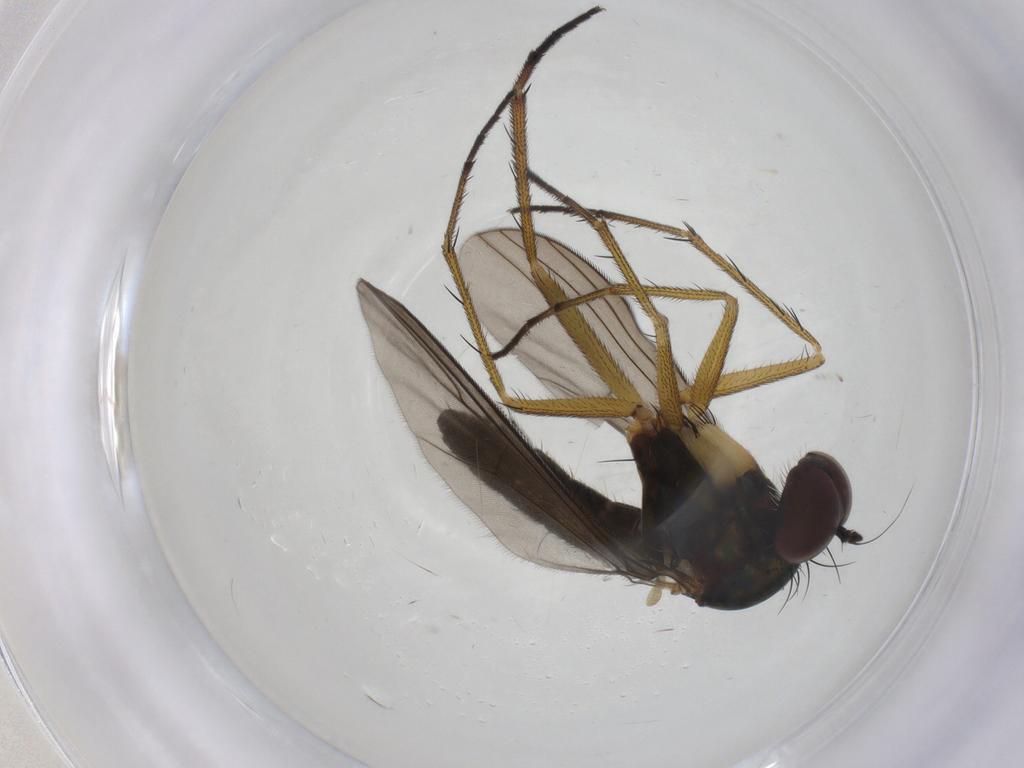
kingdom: Animalia
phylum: Arthropoda
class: Insecta
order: Diptera
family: Dolichopodidae
